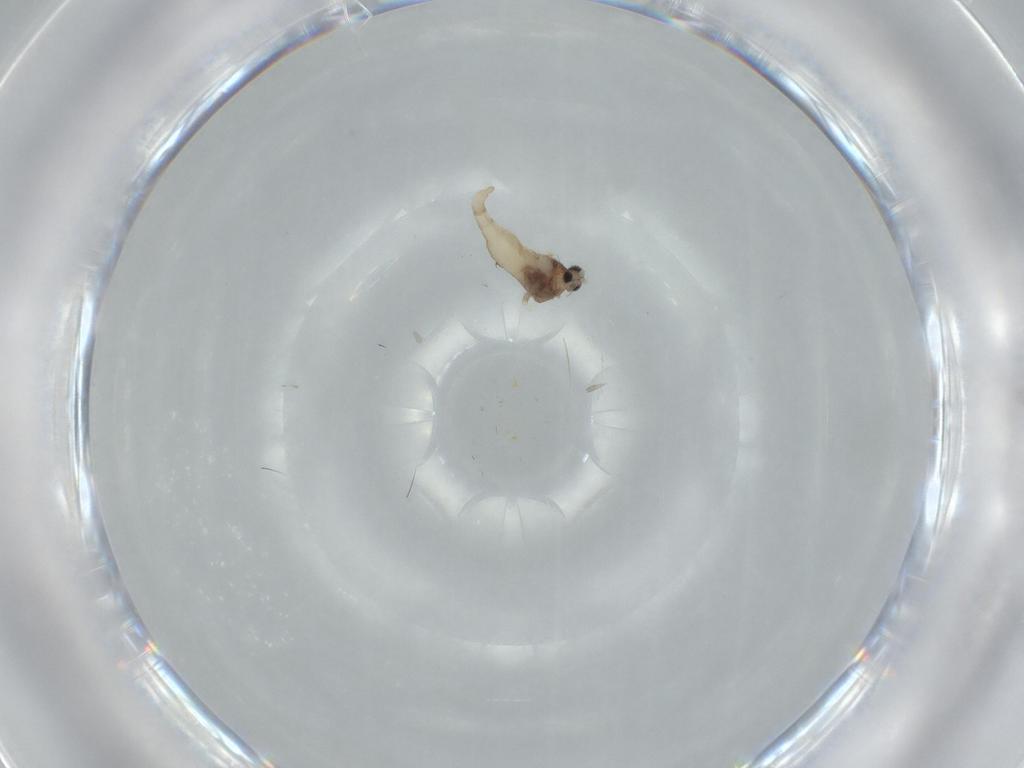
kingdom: Animalia
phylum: Arthropoda
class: Insecta
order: Diptera
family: Cecidomyiidae
